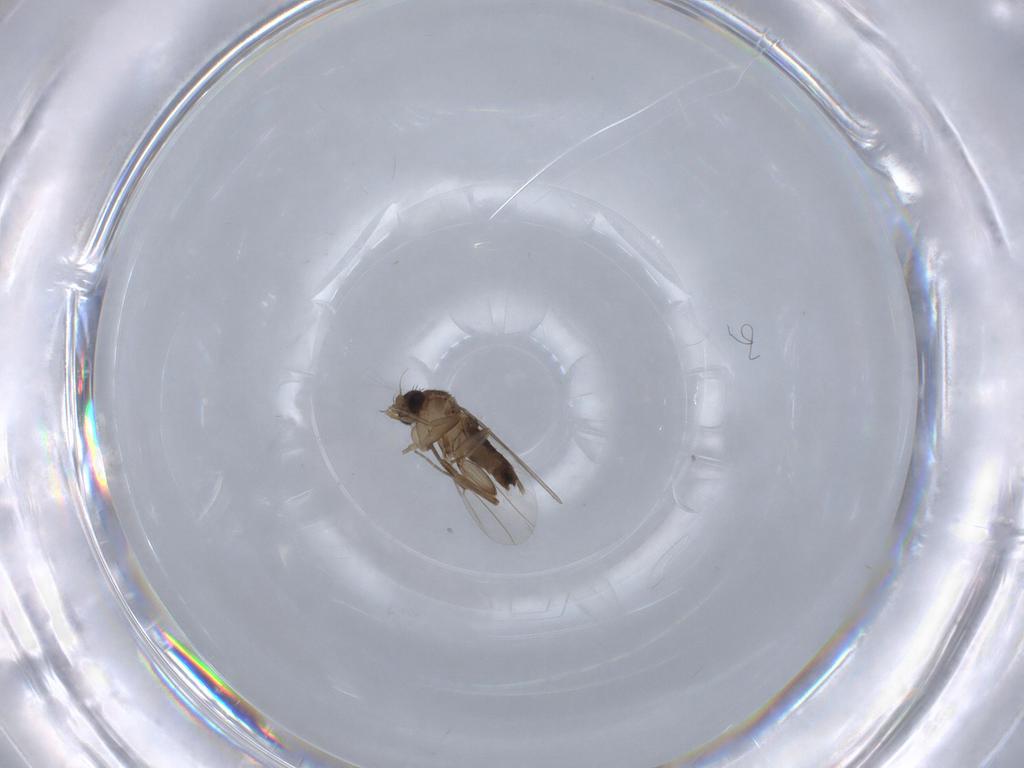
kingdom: Animalia
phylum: Arthropoda
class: Insecta
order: Diptera
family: Phoridae
